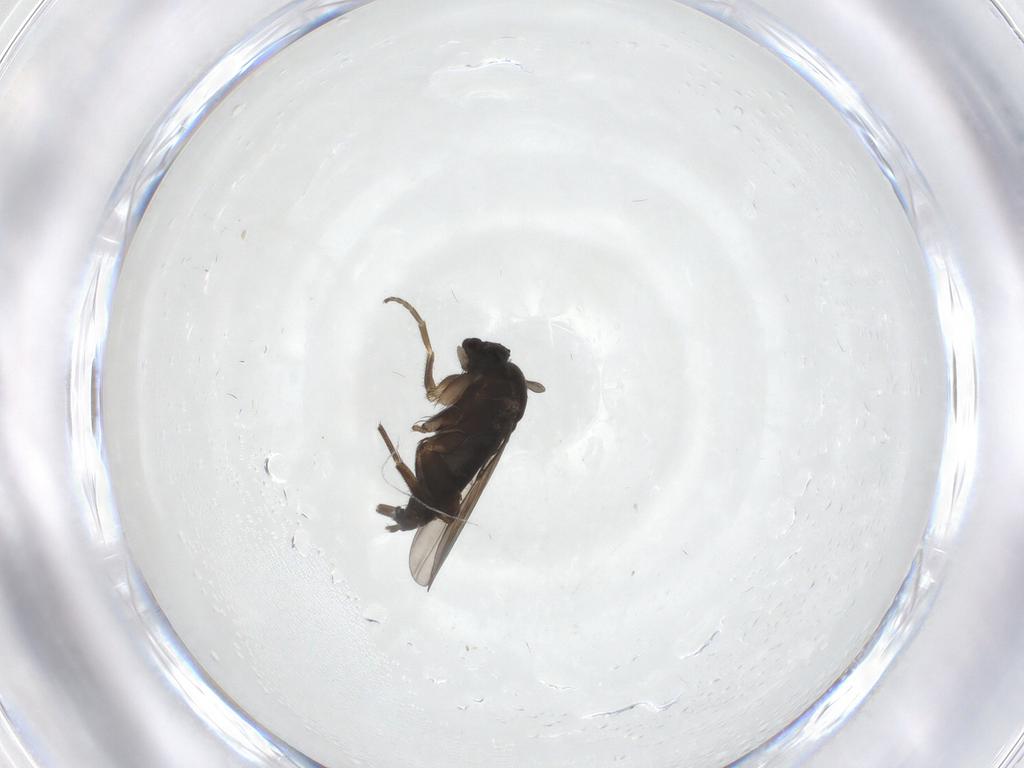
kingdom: Animalia
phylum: Arthropoda
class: Insecta
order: Diptera
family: Phoridae
